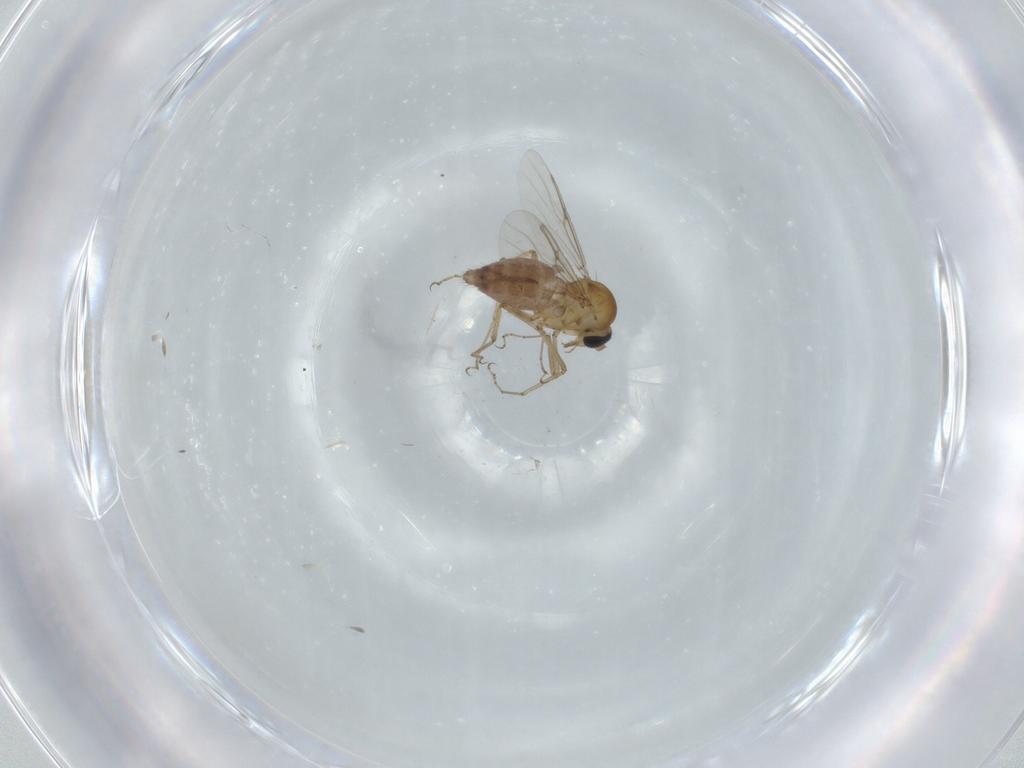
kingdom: Animalia
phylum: Arthropoda
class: Insecta
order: Diptera
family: Ceratopogonidae
